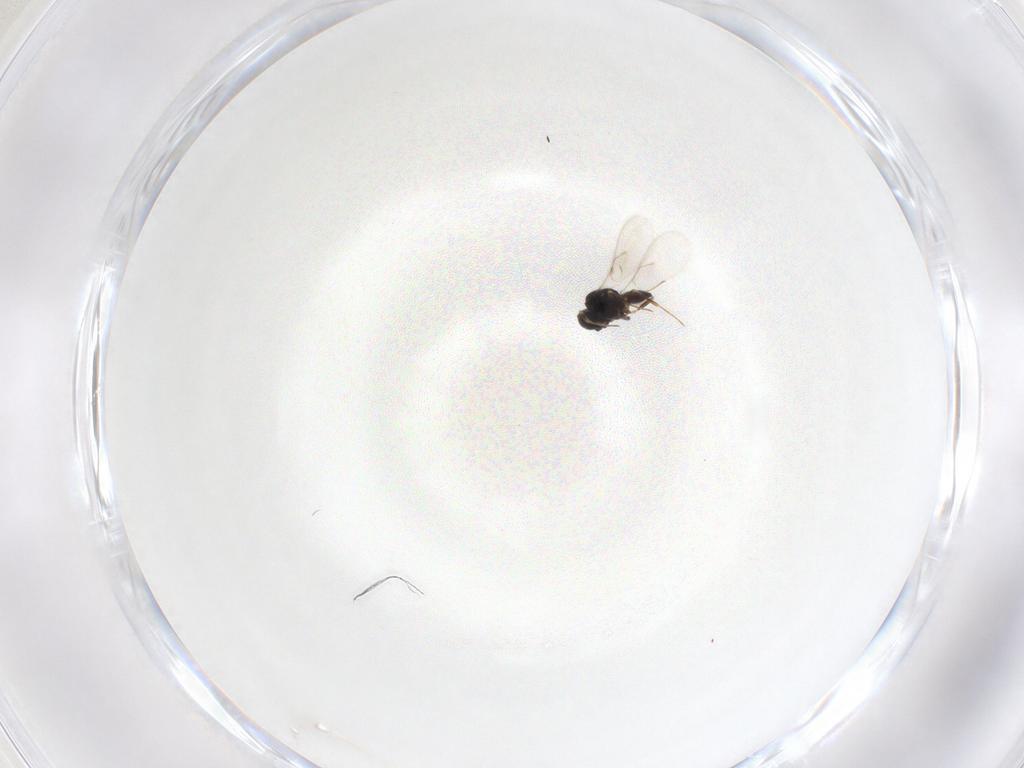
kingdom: Animalia
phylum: Arthropoda
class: Insecta
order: Hymenoptera
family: Scelionidae
